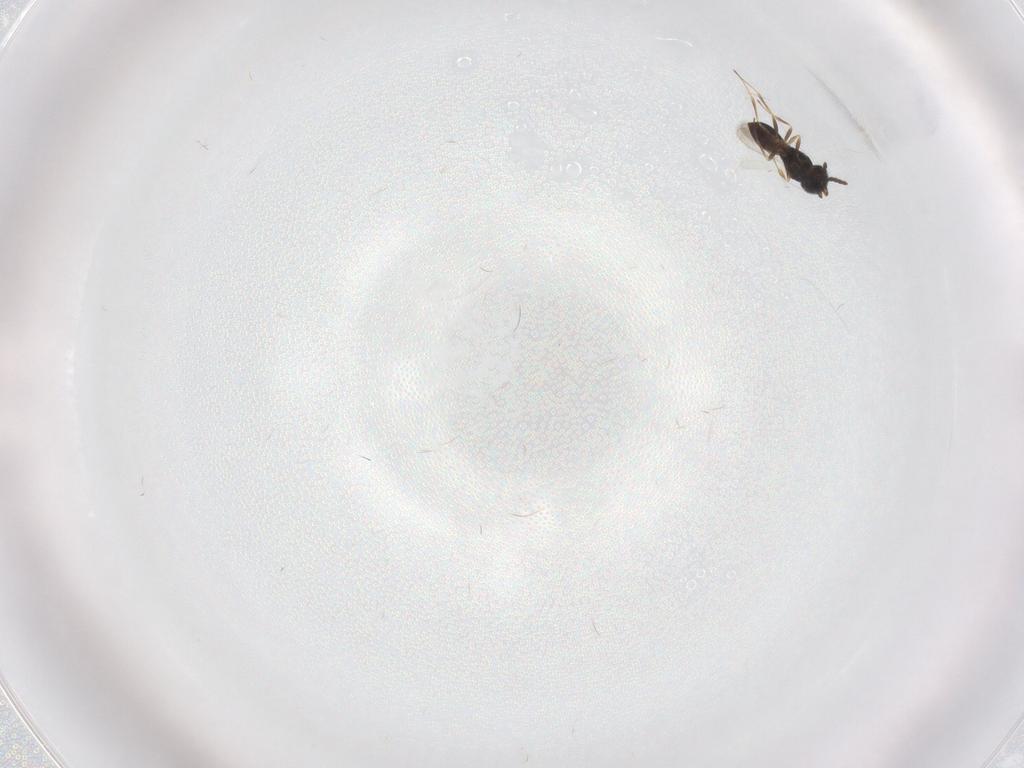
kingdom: Animalia
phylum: Arthropoda
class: Insecta
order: Hymenoptera
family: Scelionidae
